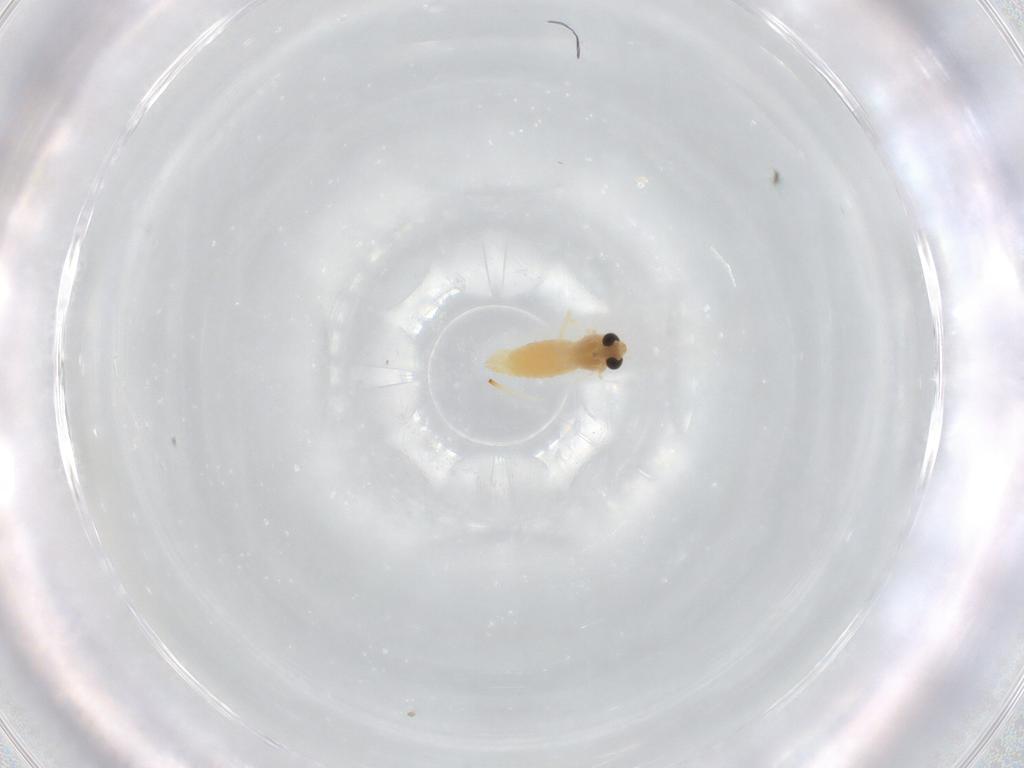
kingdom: Animalia
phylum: Arthropoda
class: Insecta
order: Diptera
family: Chironomidae
